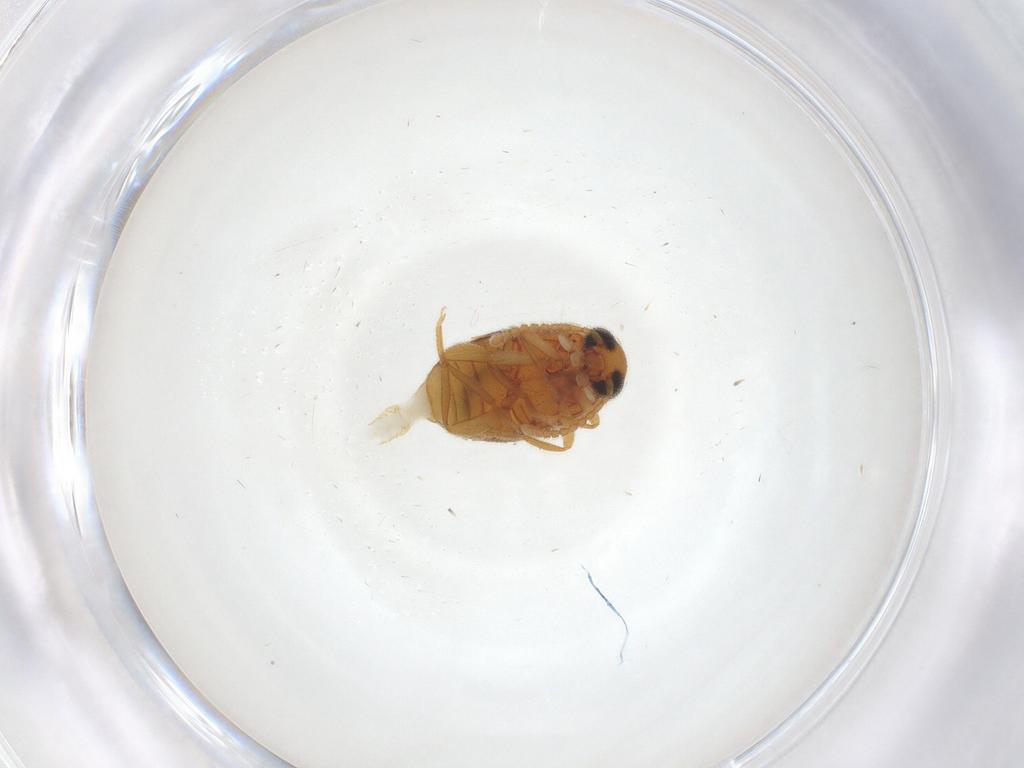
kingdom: Animalia
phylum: Arthropoda
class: Insecta
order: Coleoptera
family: Aderidae
